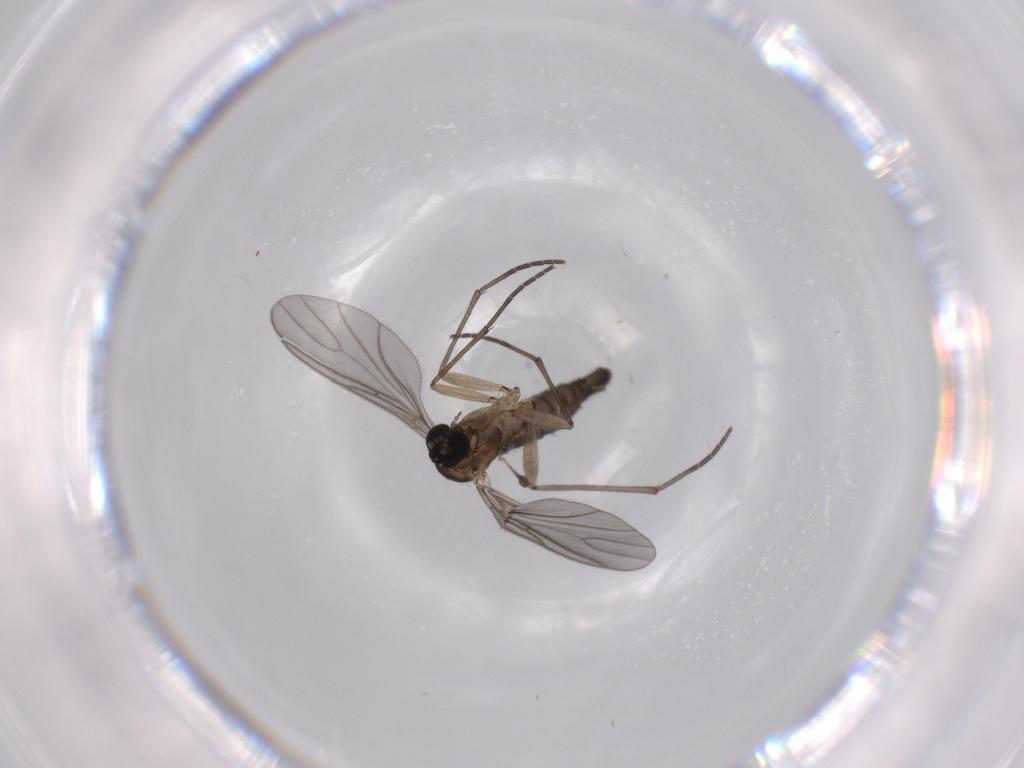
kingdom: Animalia
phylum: Arthropoda
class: Insecta
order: Diptera
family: Sciaridae
